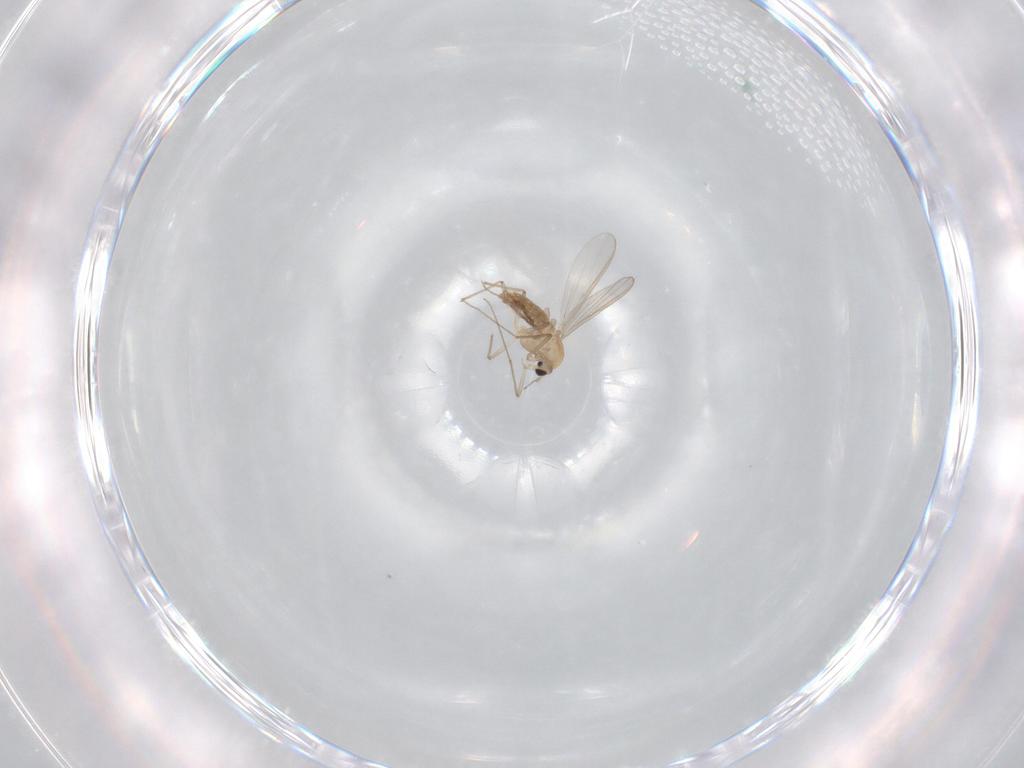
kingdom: Animalia
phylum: Arthropoda
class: Insecta
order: Diptera
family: Chironomidae
